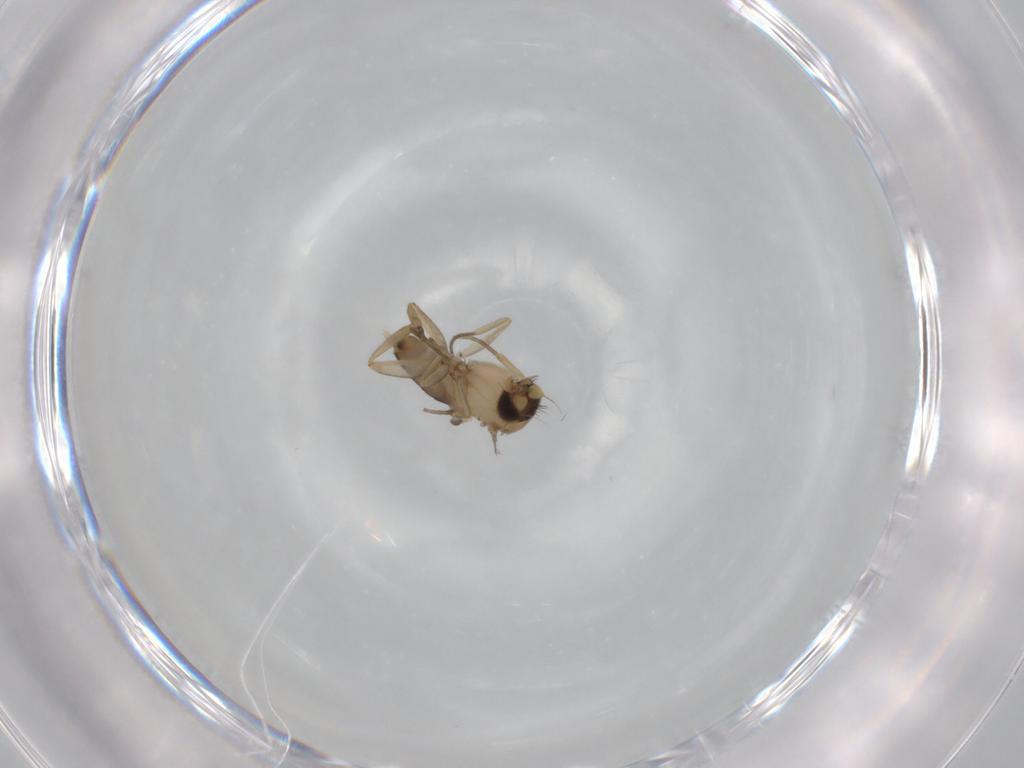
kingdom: Animalia
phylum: Arthropoda
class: Insecta
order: Diptera
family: Phoridae
